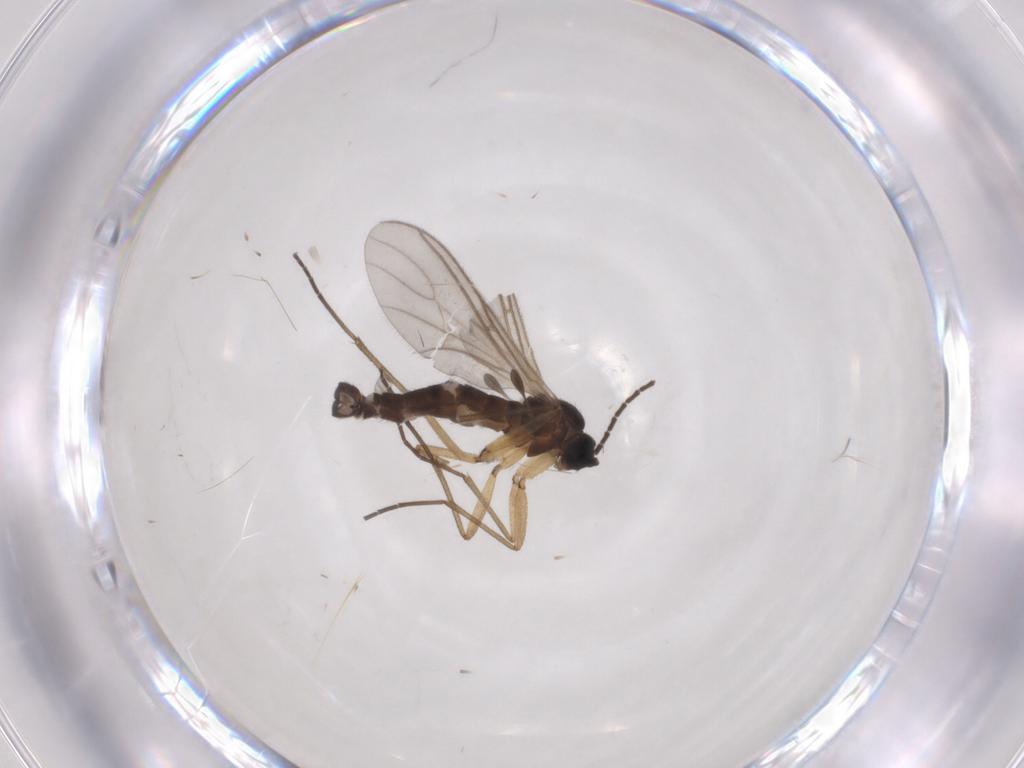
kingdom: Animalia
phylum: Arthropoda
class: Insecta
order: Diptera
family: Sciaridae
